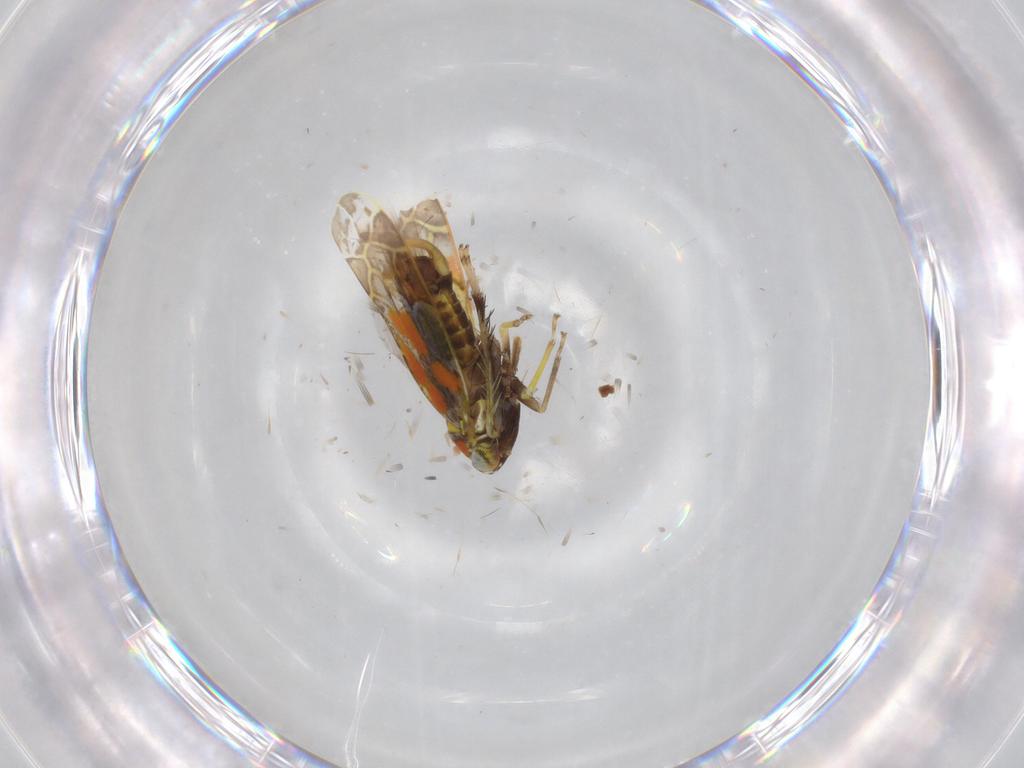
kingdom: Animalia
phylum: Arthropoda
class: Insecta
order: Hemiptera
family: Cicadellidae
